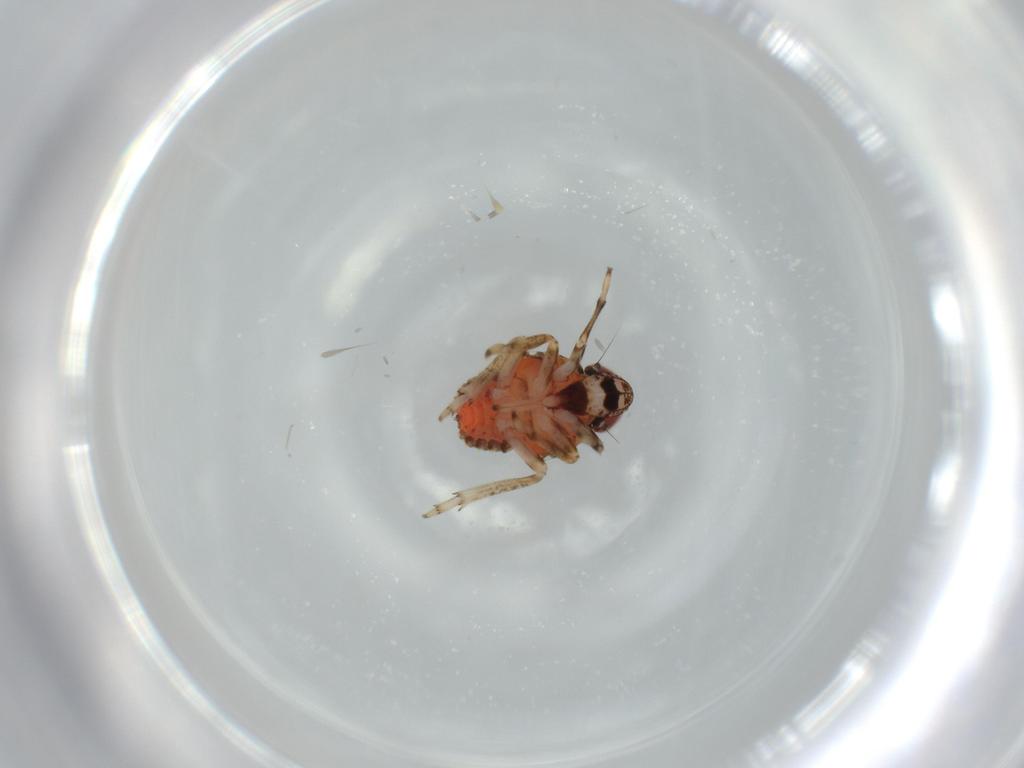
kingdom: Animalia
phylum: Arthropoda
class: Insecta
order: Hemiptera
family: Issidae
